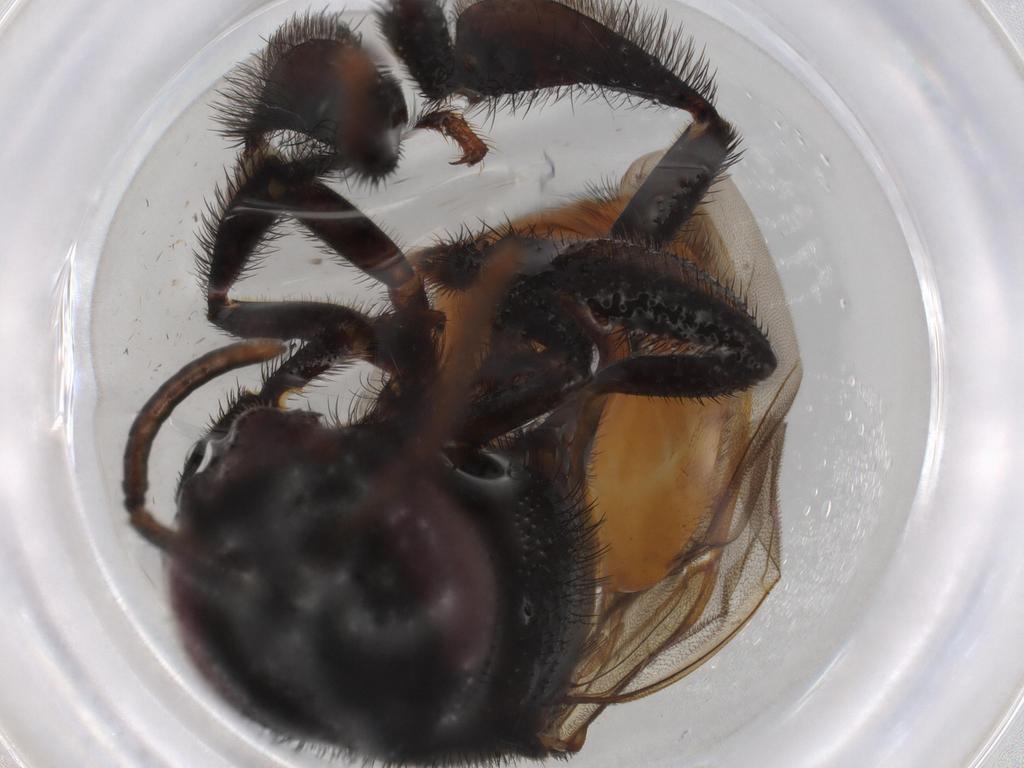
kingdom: Animalia
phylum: Arthropoda
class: Insecta
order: Hymenoptera
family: Apidae
